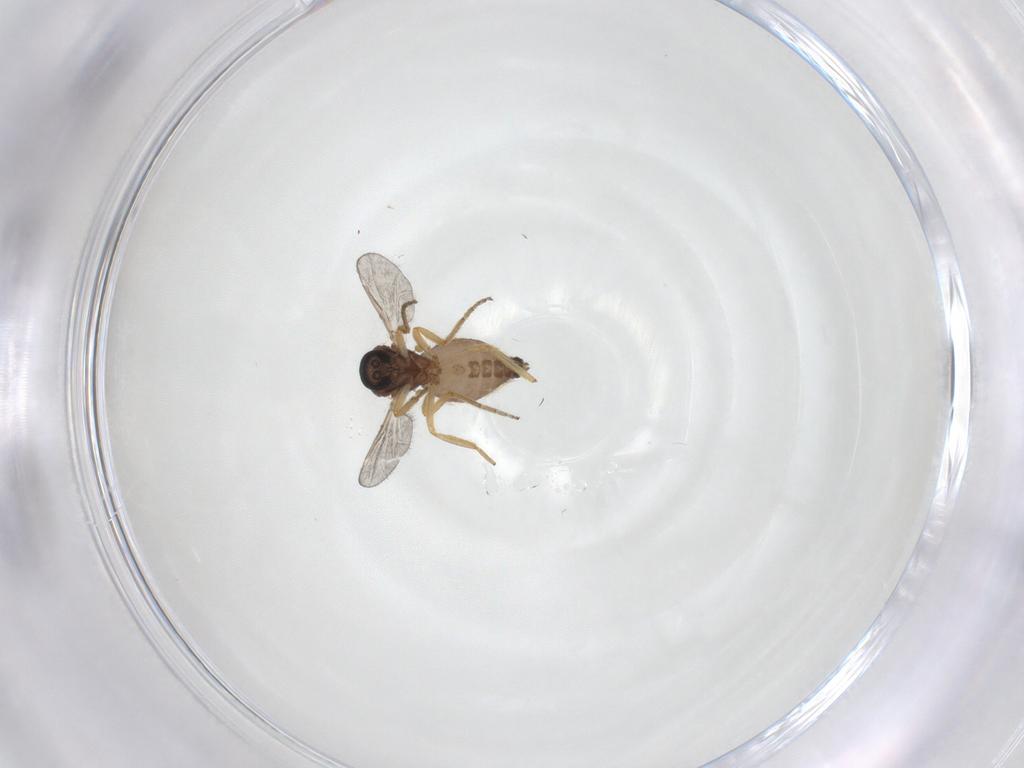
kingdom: Animalia
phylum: Arthropoda
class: Insecta
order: Diptera
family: Ceratopogonidae
